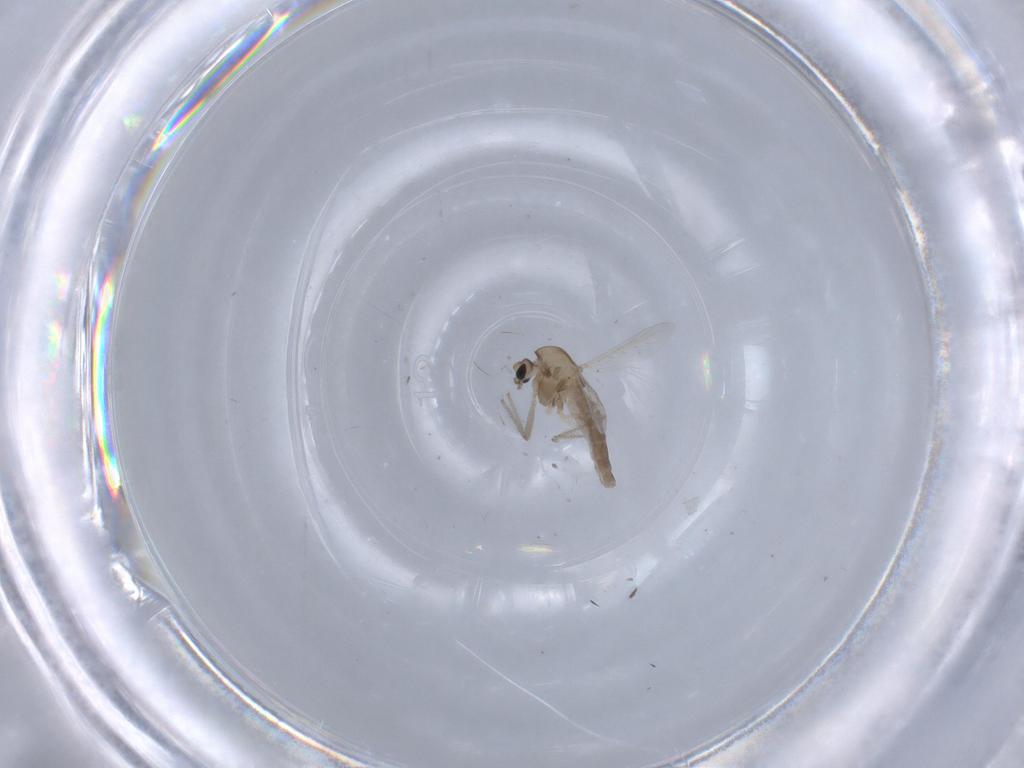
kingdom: Animalia
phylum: Arthropoda
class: Insecta
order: Diptera
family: Chironomidae
